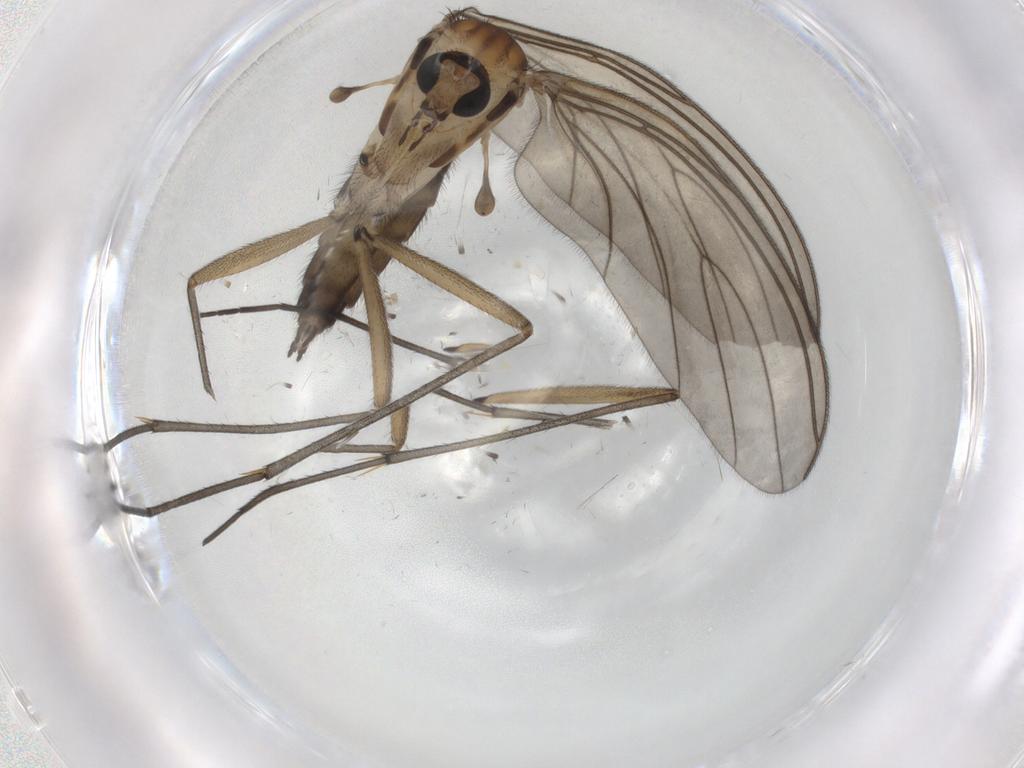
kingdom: Animalia
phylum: Arthropoda
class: Insecta
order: Diptera
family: Sciaridae
